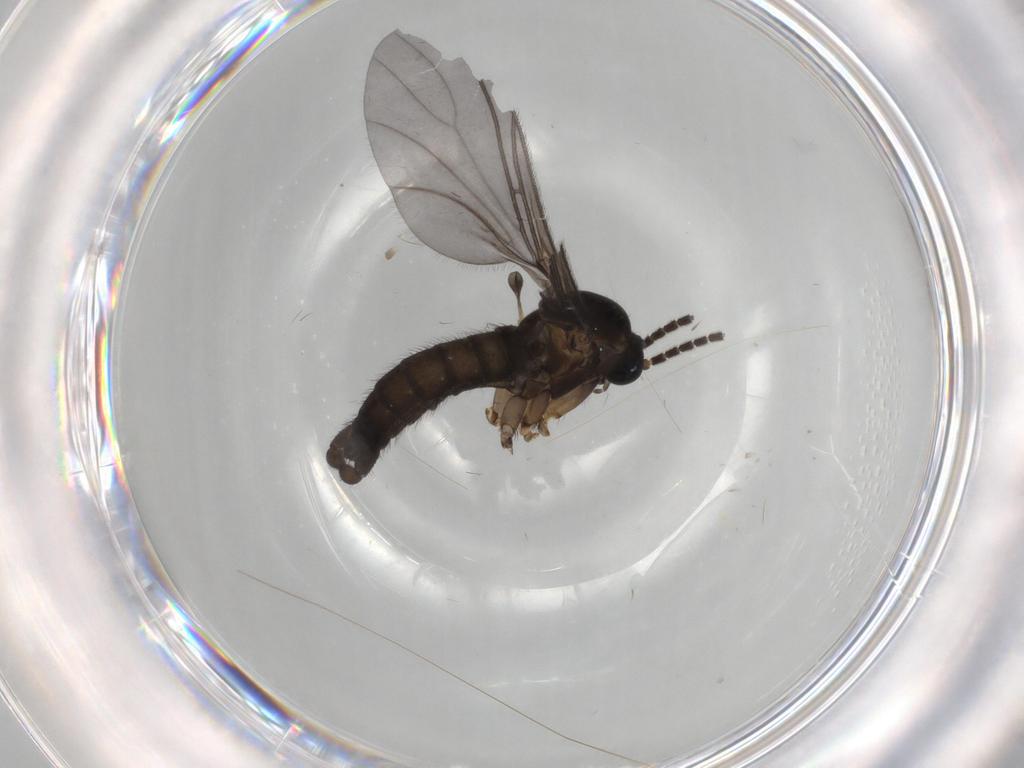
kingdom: Animalia
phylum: Arthropoda
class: Insecta
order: Diptera
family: Sciaridae
